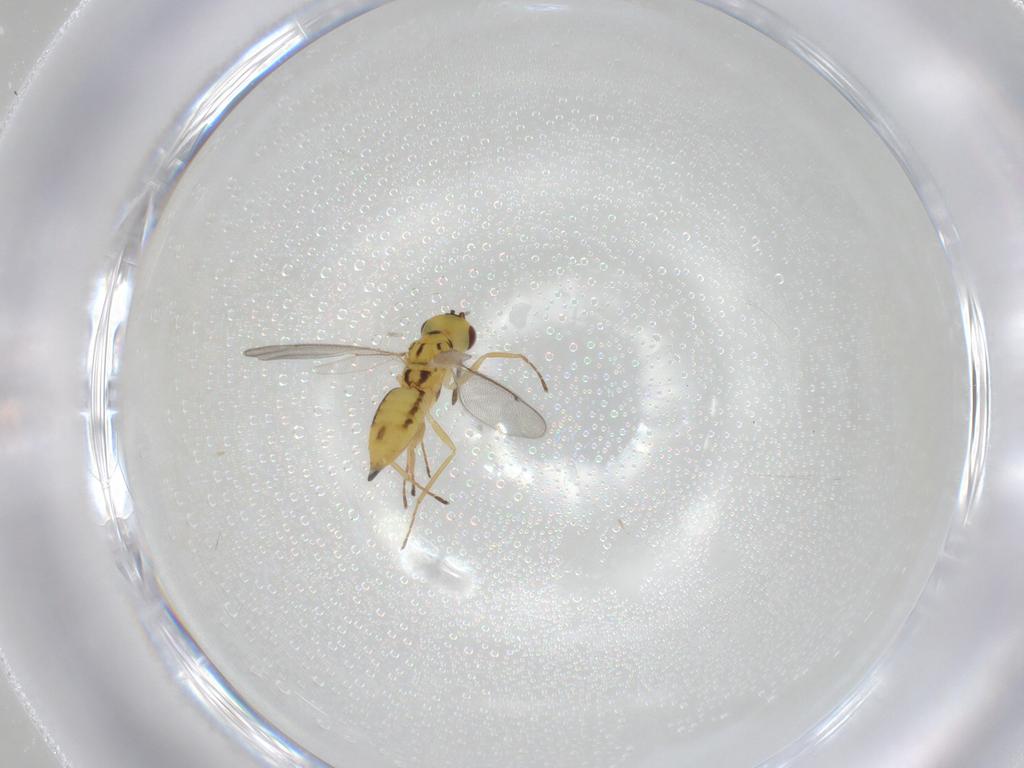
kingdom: Animalia
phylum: Arthropoda
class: Insecta
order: Hymenoptera
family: Eulophidae
